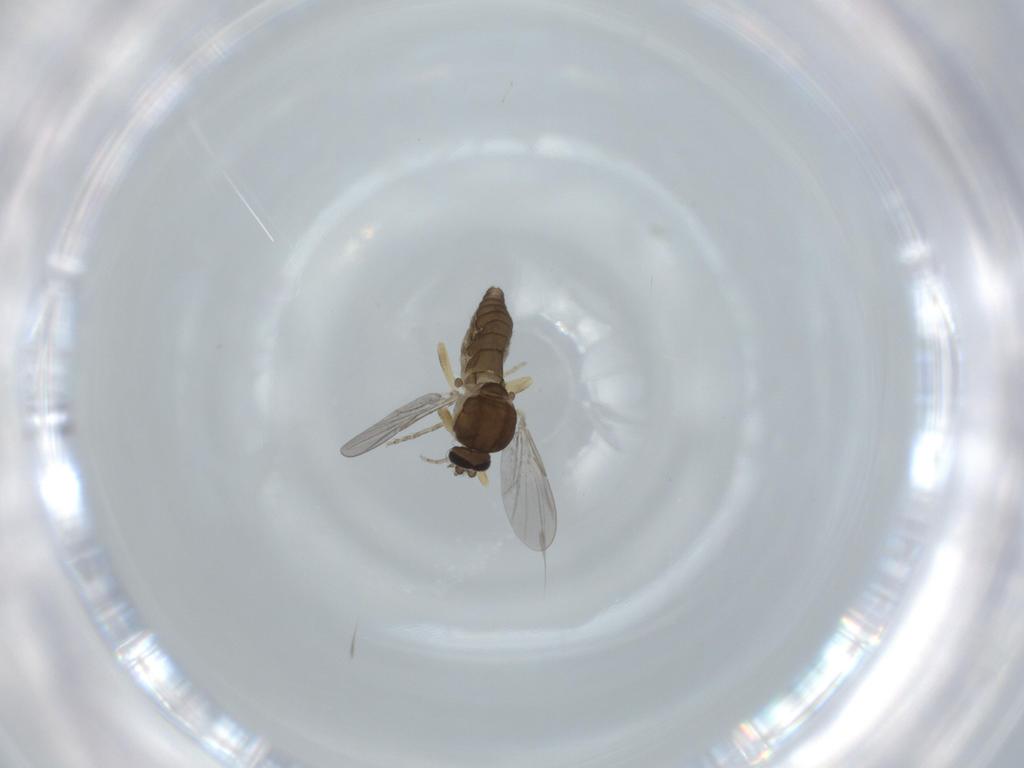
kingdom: Animalia
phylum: Arthropoda
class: Insecta
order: Diptera
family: Ceratopogonidae
